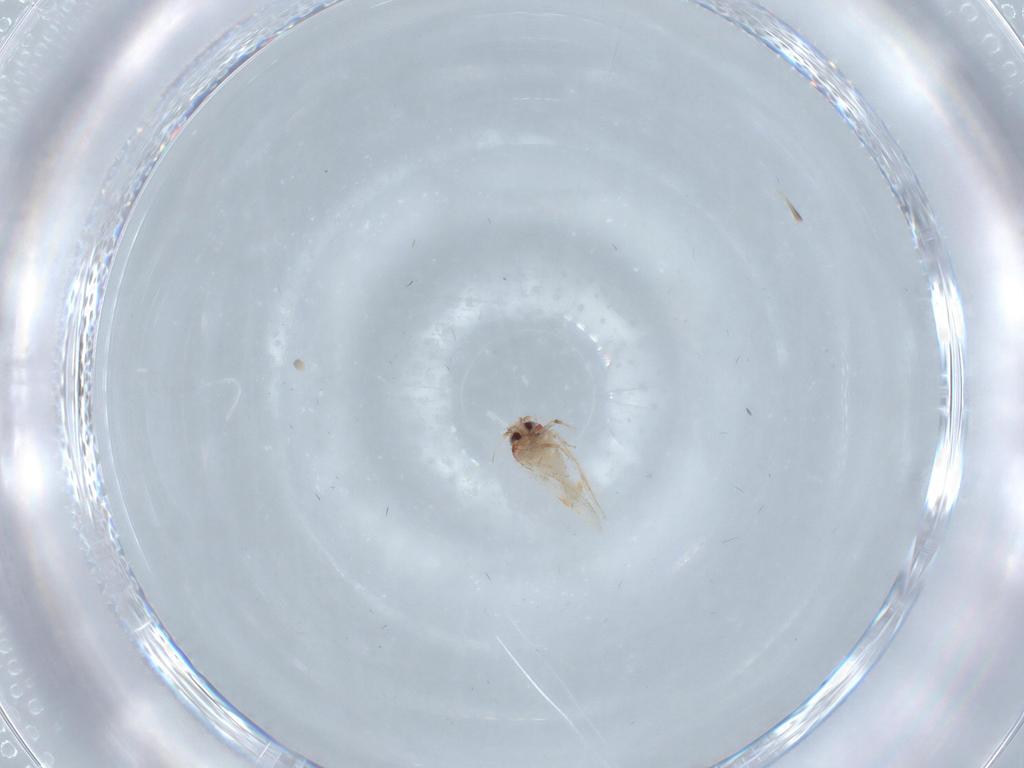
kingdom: Animalia
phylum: Arthropoda
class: Insecta
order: Hemiptera
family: Aleyrodidae
